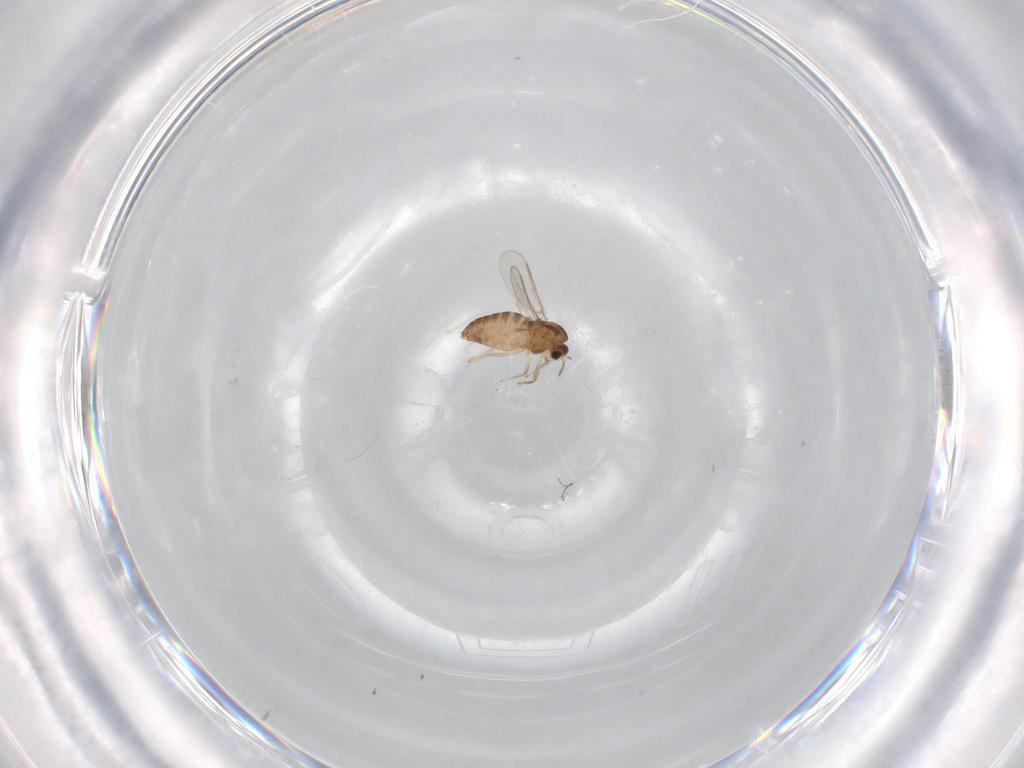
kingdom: Animalia
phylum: Arthropoda
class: Insecta
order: Diptera
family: Chironomidae
